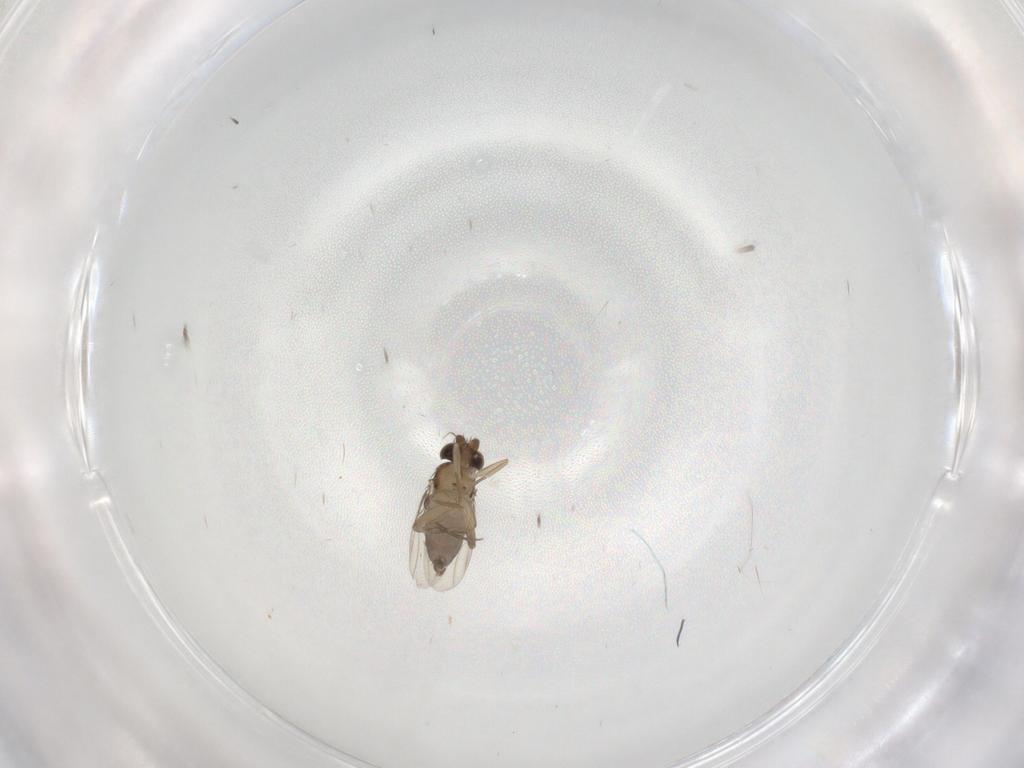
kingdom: Animalia
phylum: Arthropoda
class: Insecta
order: Diptera
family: Phoridae
